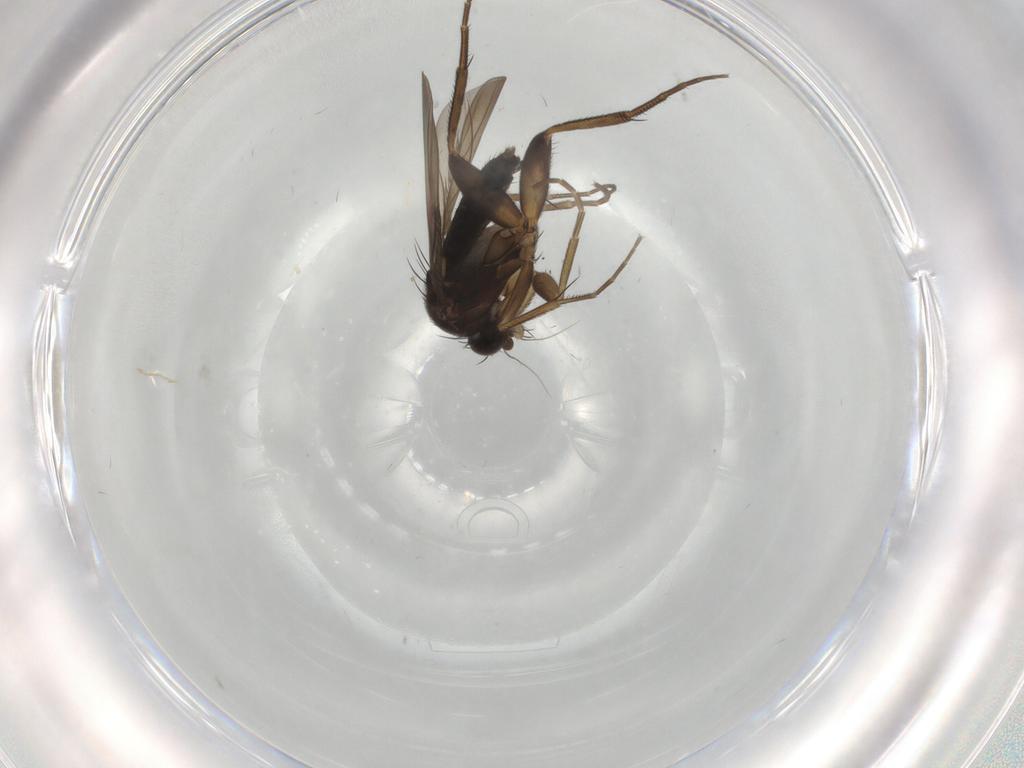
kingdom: Animalia
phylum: Arthropoda
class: Insecta
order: Diptera
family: Phoridae
